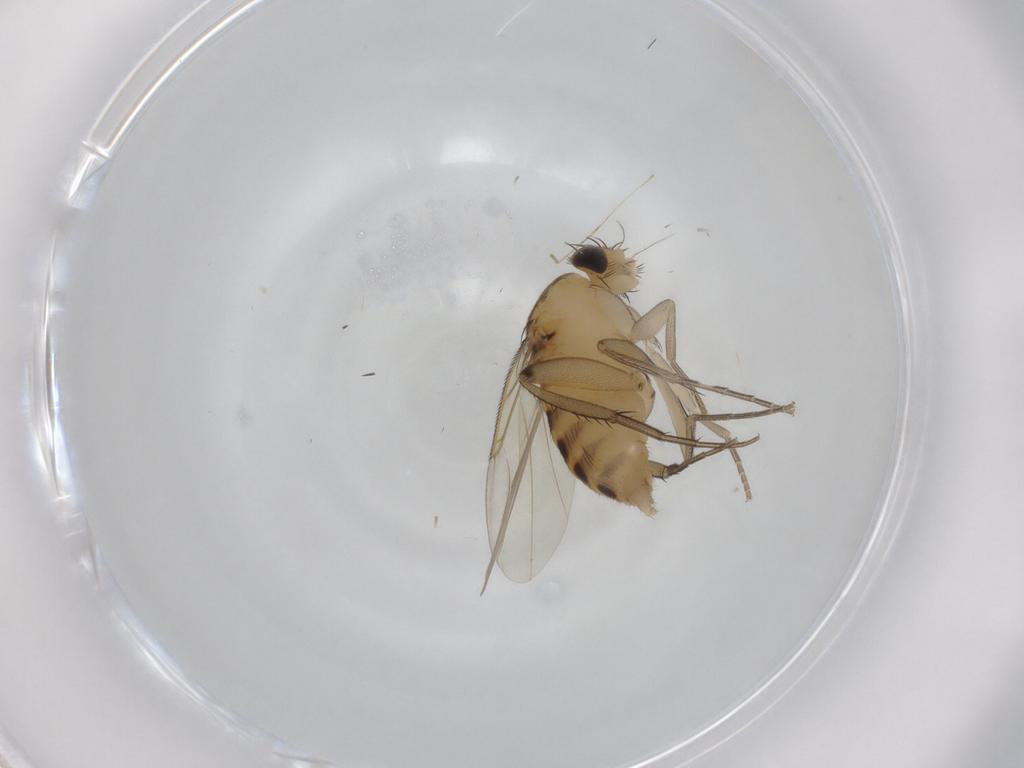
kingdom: Animalia
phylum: Arthropoda
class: Insecta
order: Diptera
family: Phoridae
